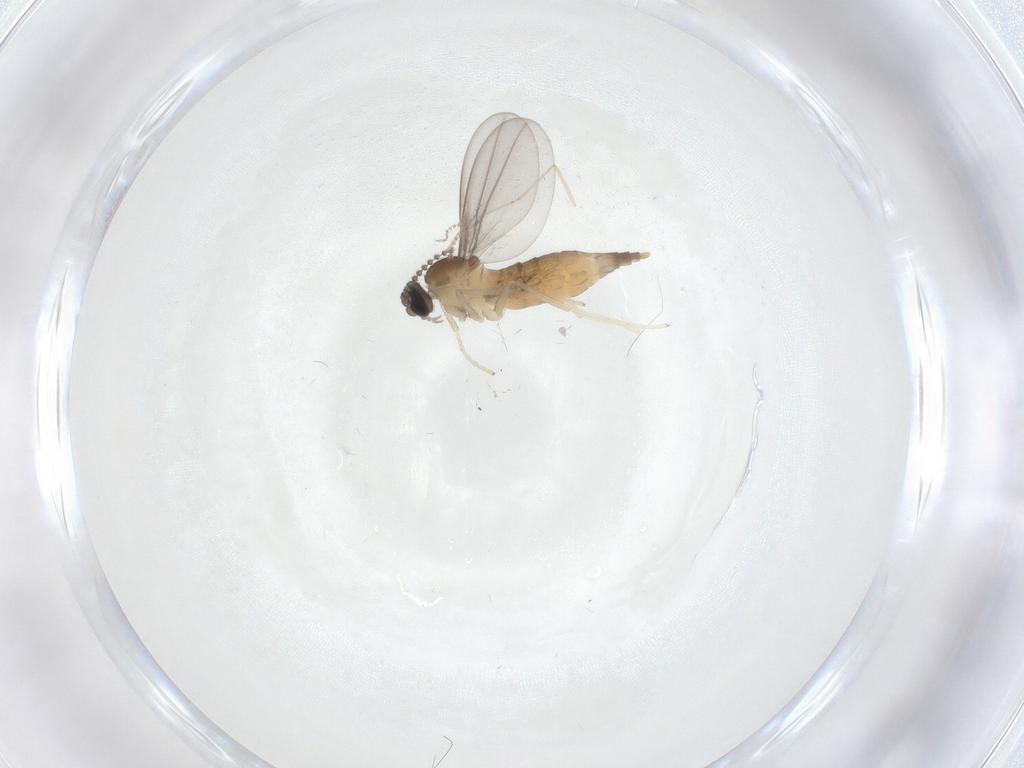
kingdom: Animalia
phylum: Arthropoda
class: Insecta
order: Diptera
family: Cecidomyiidae
